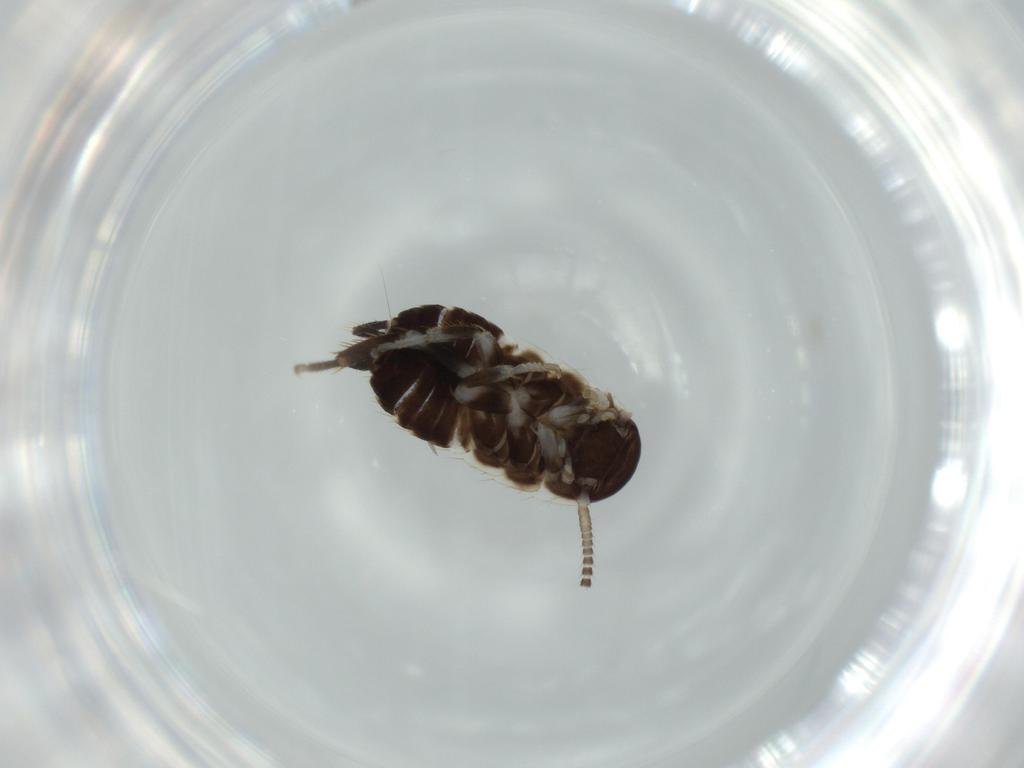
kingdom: Animalia
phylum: Arthropoda
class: Insecta
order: Blattodea
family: Ectobiidae
